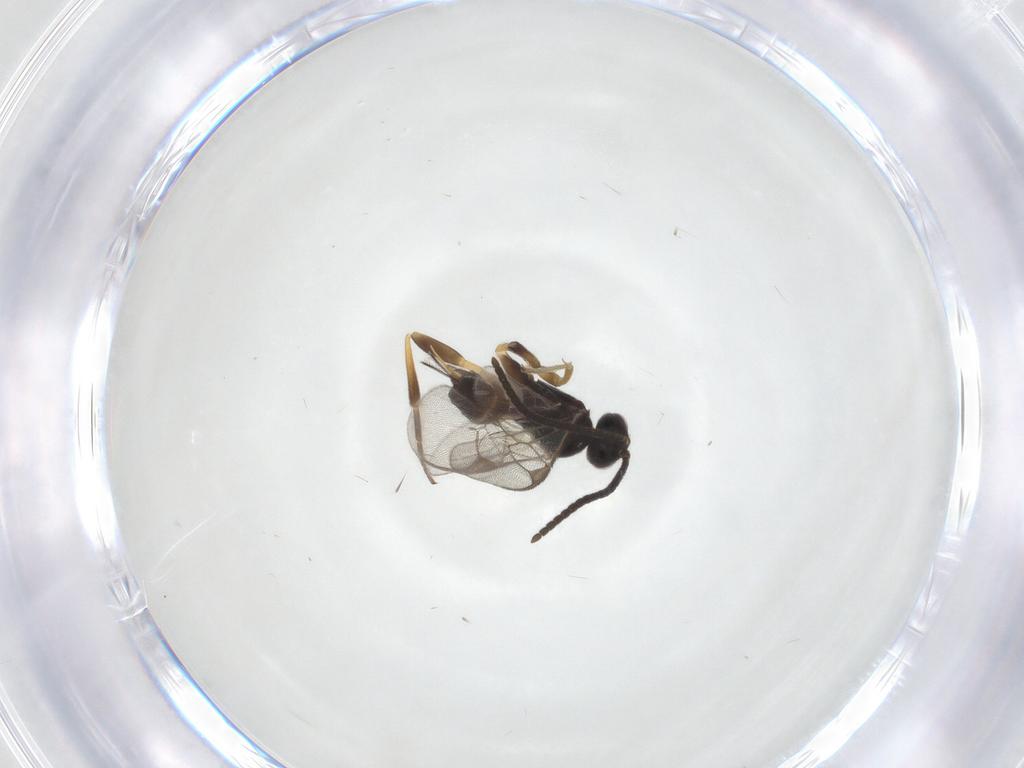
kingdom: Animalia
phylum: Arthropoda
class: Insecta
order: Hymenoptera
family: Braconidae
